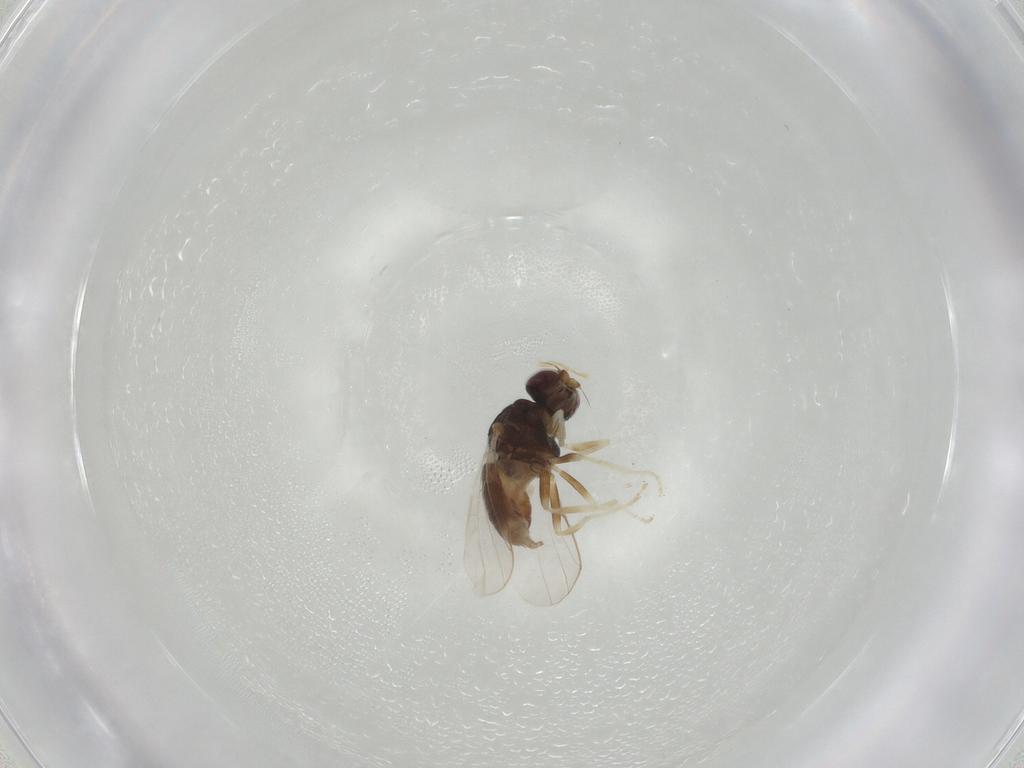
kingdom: Animalia
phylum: Arthropoda
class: Insecta
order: Diptera
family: Chloropidae
